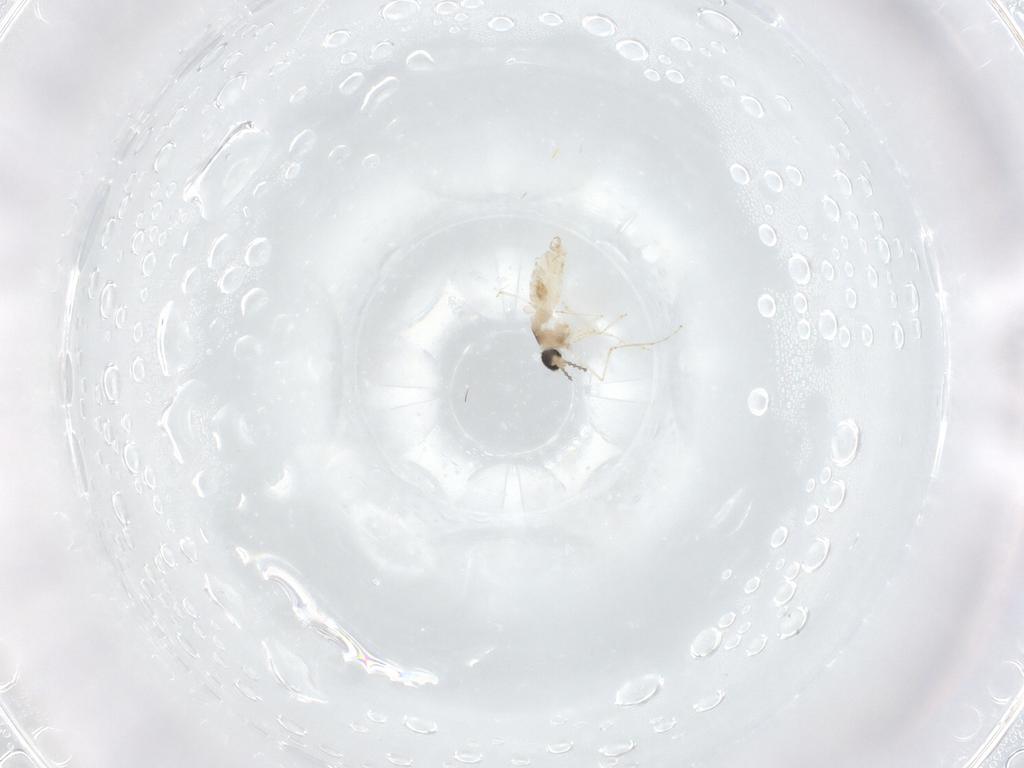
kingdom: Animalia
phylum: Arthropoda
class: Insecta
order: Diptera
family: Cecidomyiidae
